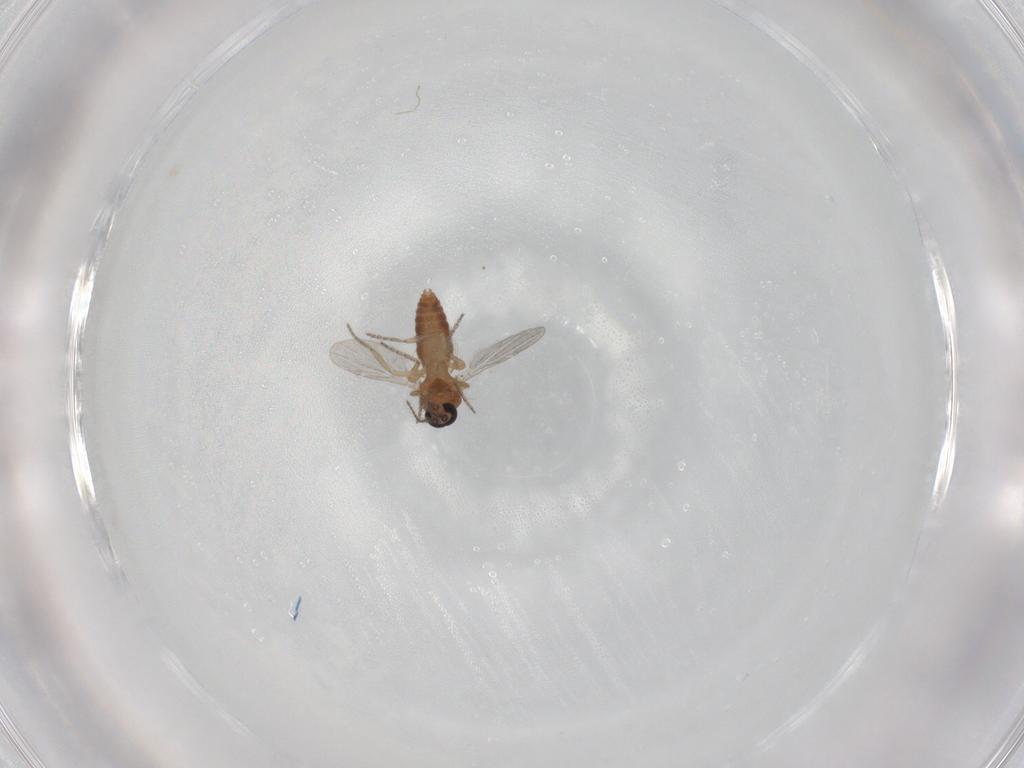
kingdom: Animalia
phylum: Arthropoda
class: Insecta
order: Diptera
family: Ceratopogonidae
